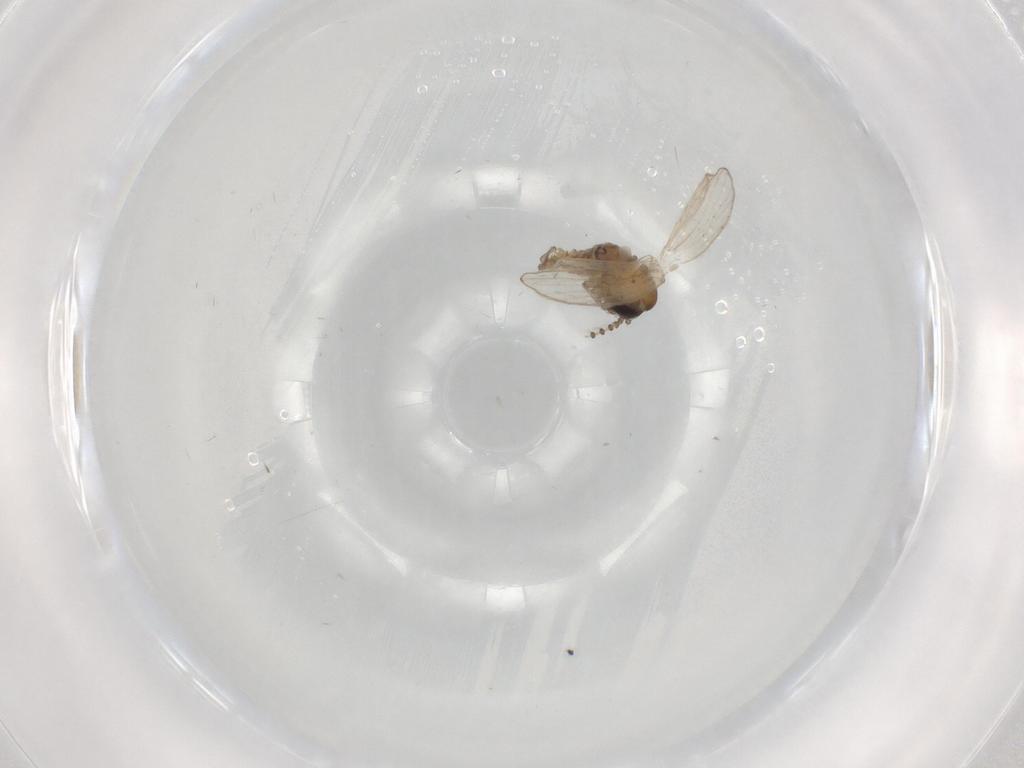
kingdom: Animalia
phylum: Arthropoda
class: Insecta
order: Diptera
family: Psychodidae
